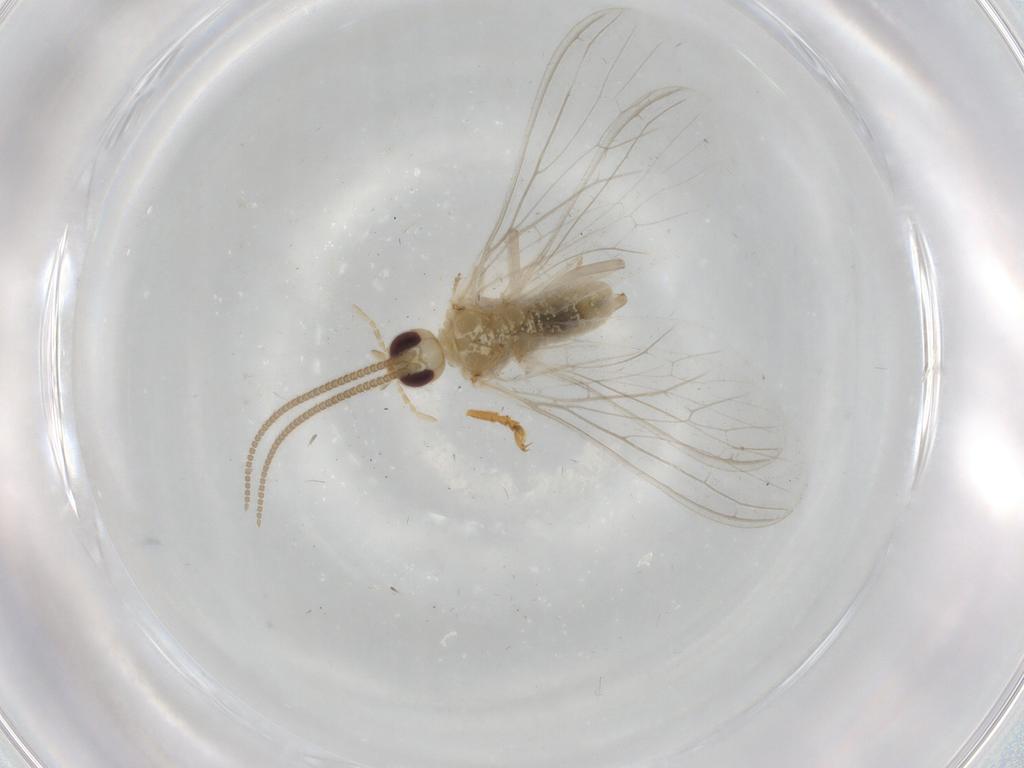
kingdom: Animalia
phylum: Arthropoda
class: Insecta
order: Neuroptera
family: Coniopterygidae
